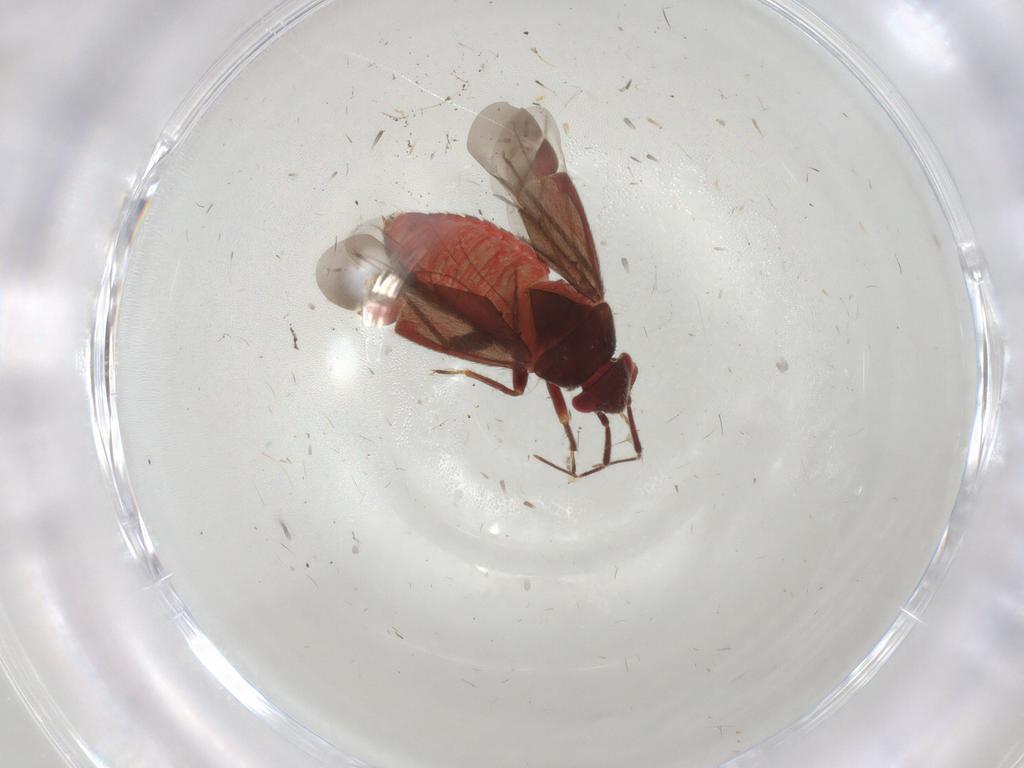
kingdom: Animalia
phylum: Arthropoda
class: Insecta
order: Hemiptera
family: Miridae
